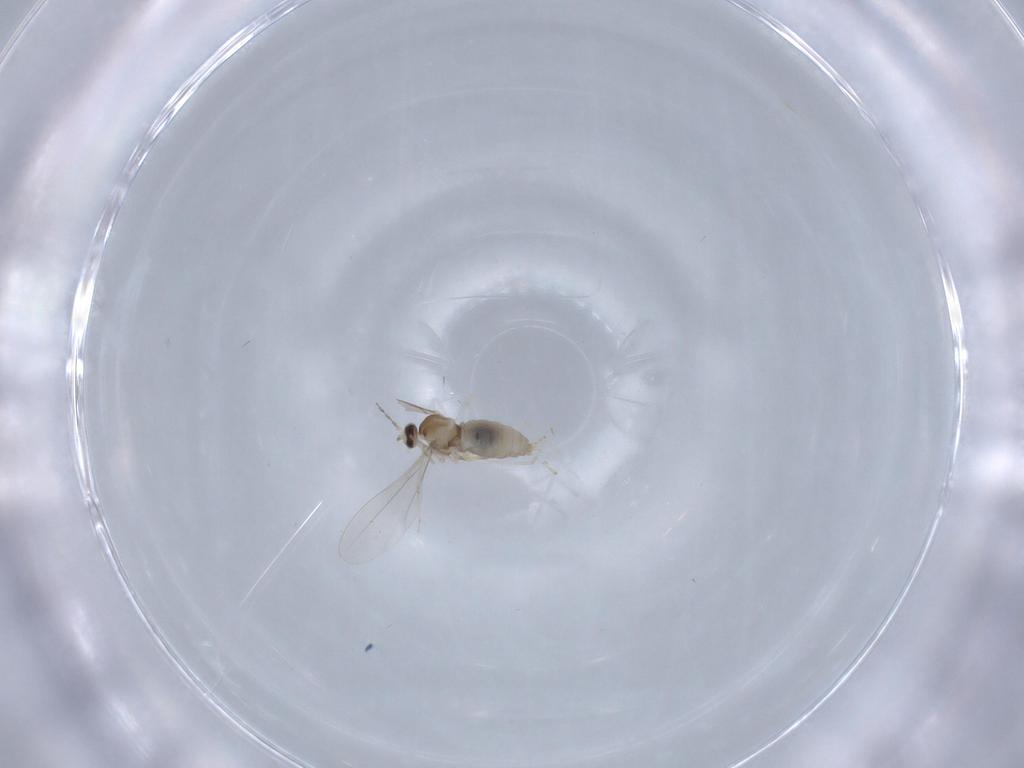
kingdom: Animalia
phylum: Arthropoda
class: Insecta
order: Diptera
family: Cecidomyiidae
